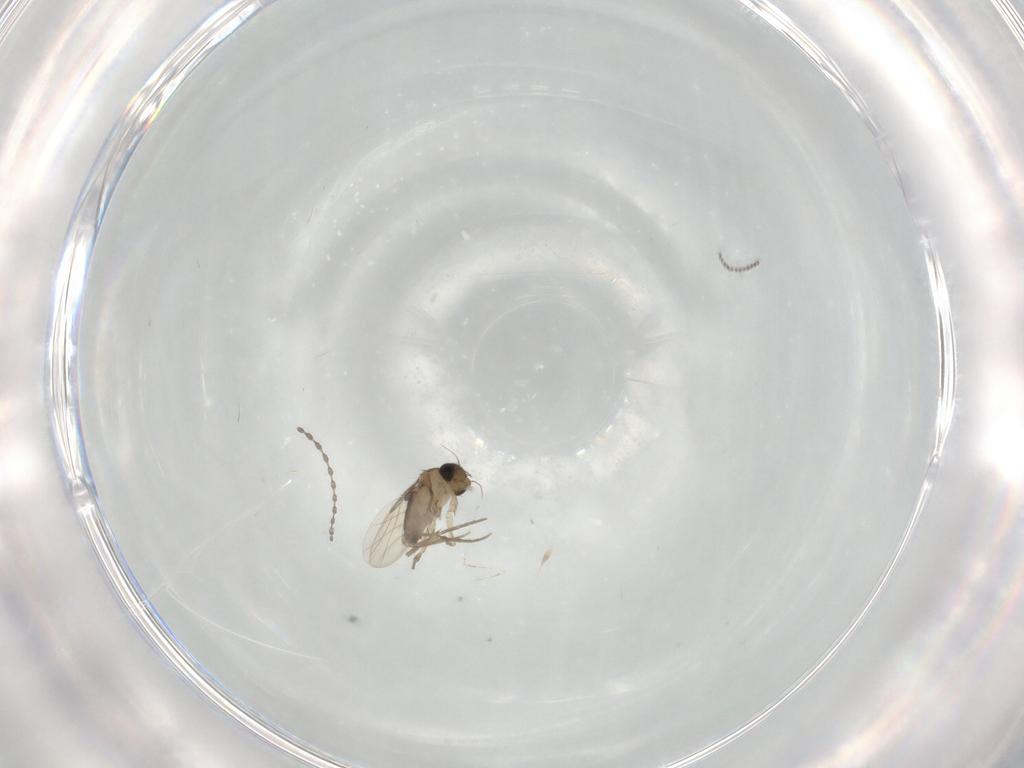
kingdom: Animalia
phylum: Arthropoda
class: Insecta
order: Diptera
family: Phoridae
